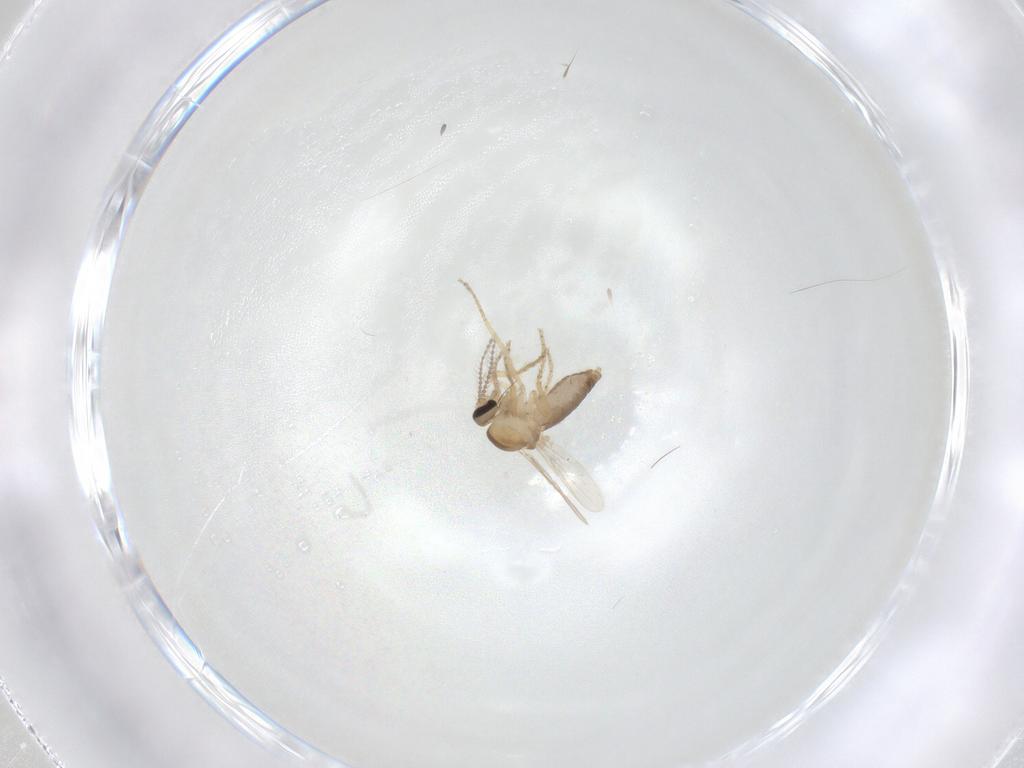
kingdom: Animalia
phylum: Arthropoda
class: Insecta
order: Diptera
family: Ceratopogonidae
